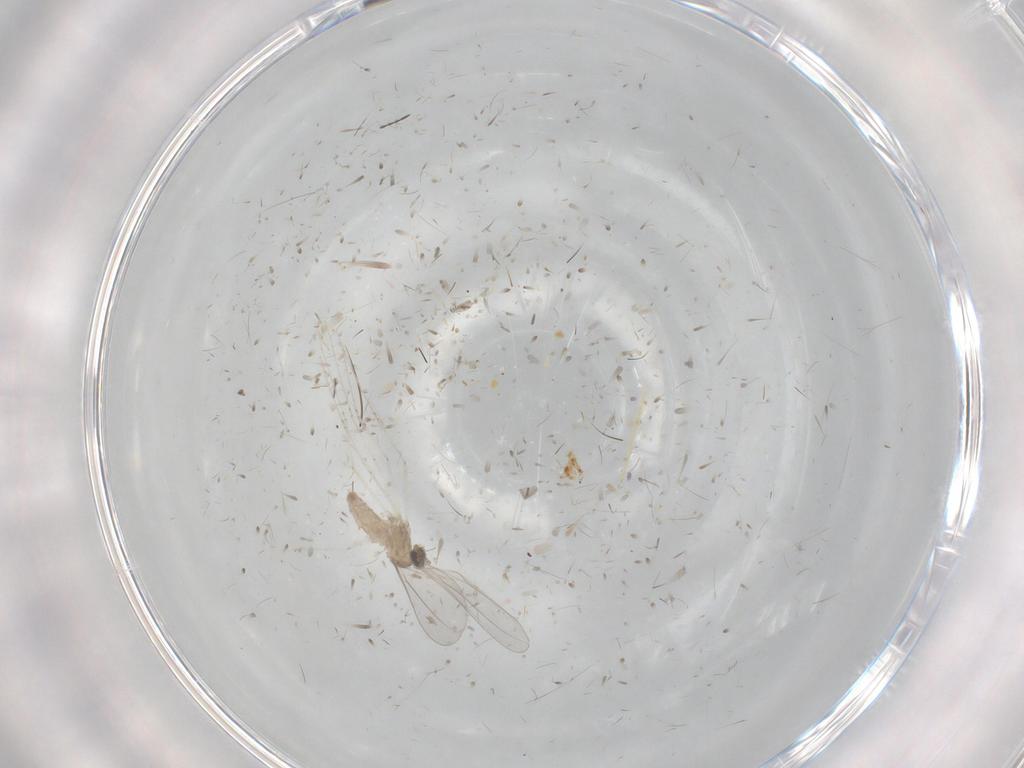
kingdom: Animalia
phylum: Arthropoda
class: Insecta
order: Diptera
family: Cecidomyiidae
